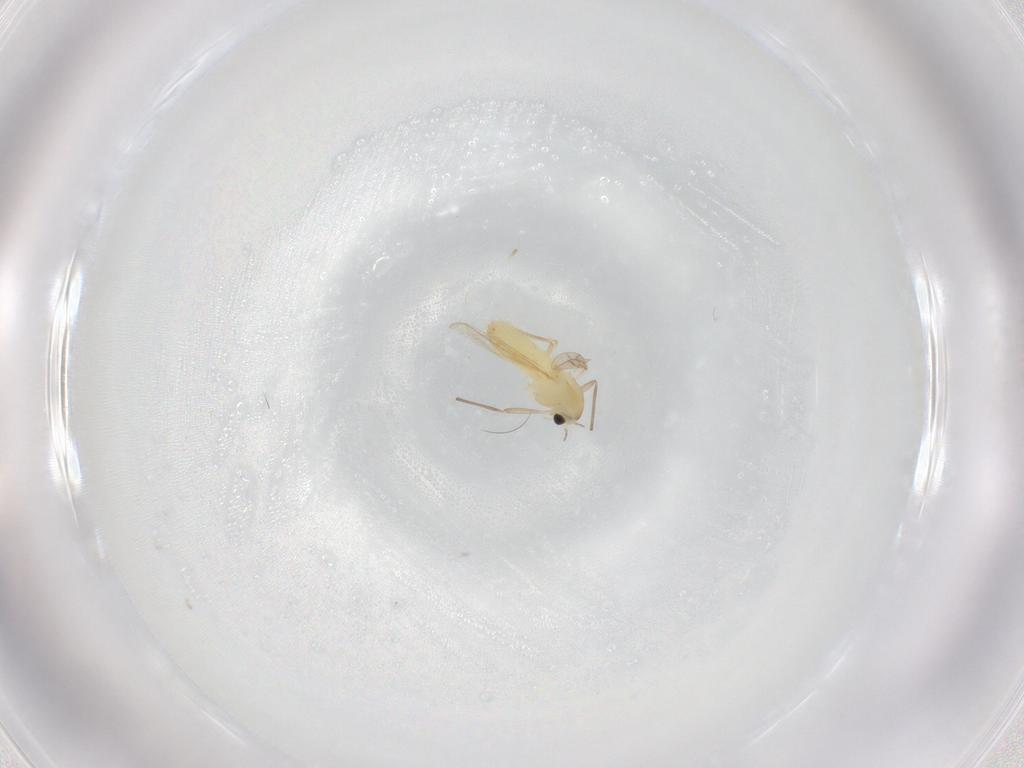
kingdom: Animalia
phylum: Arthropoda
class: Insecta
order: Diptera
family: Chironomidae
